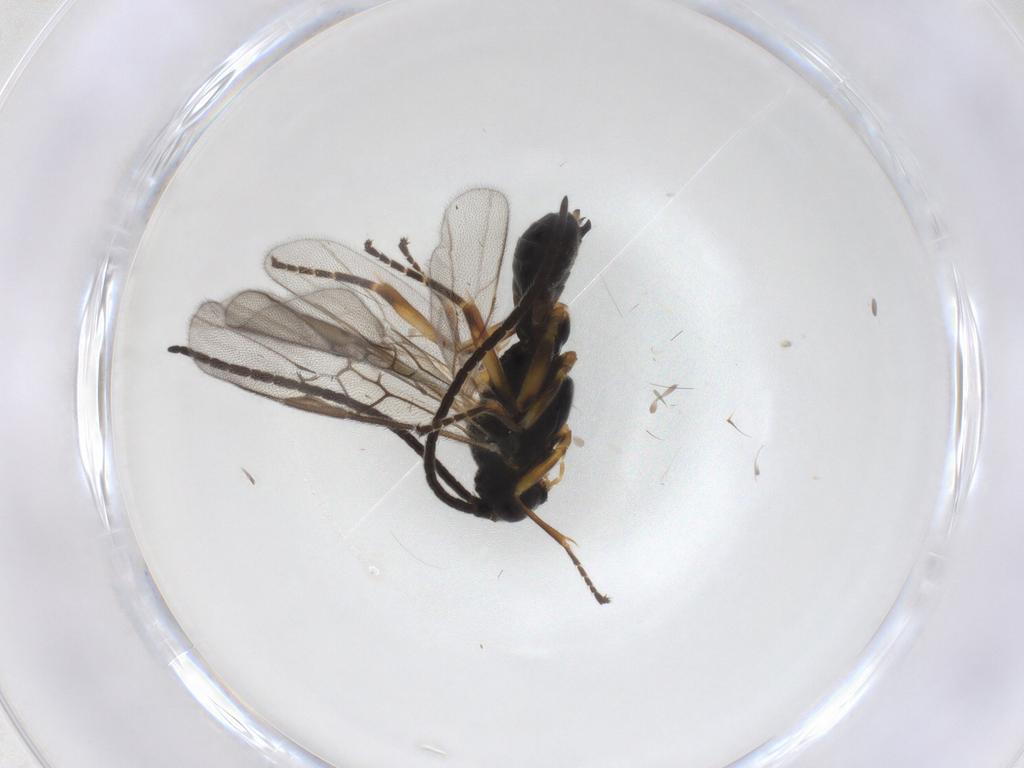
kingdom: Animalia
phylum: Arthropoda
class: Insecta
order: Hymenoptera
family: Braconidae
